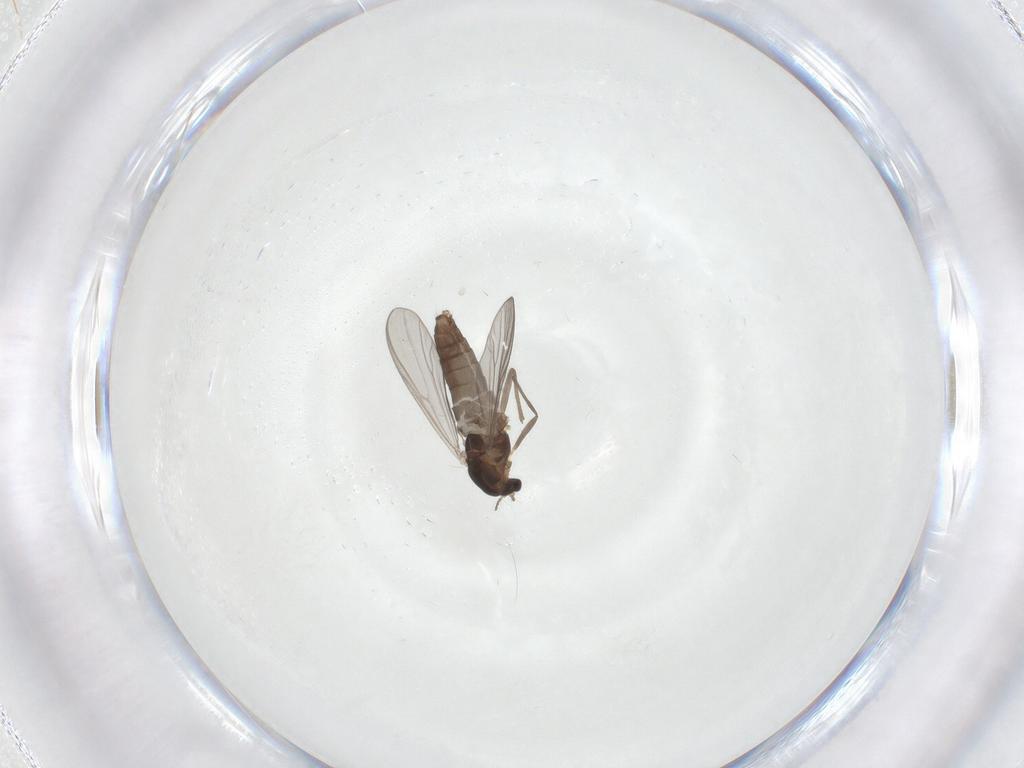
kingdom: Animalia
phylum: Arthropoda
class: Insecta
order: Diptera
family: Chironomidae
